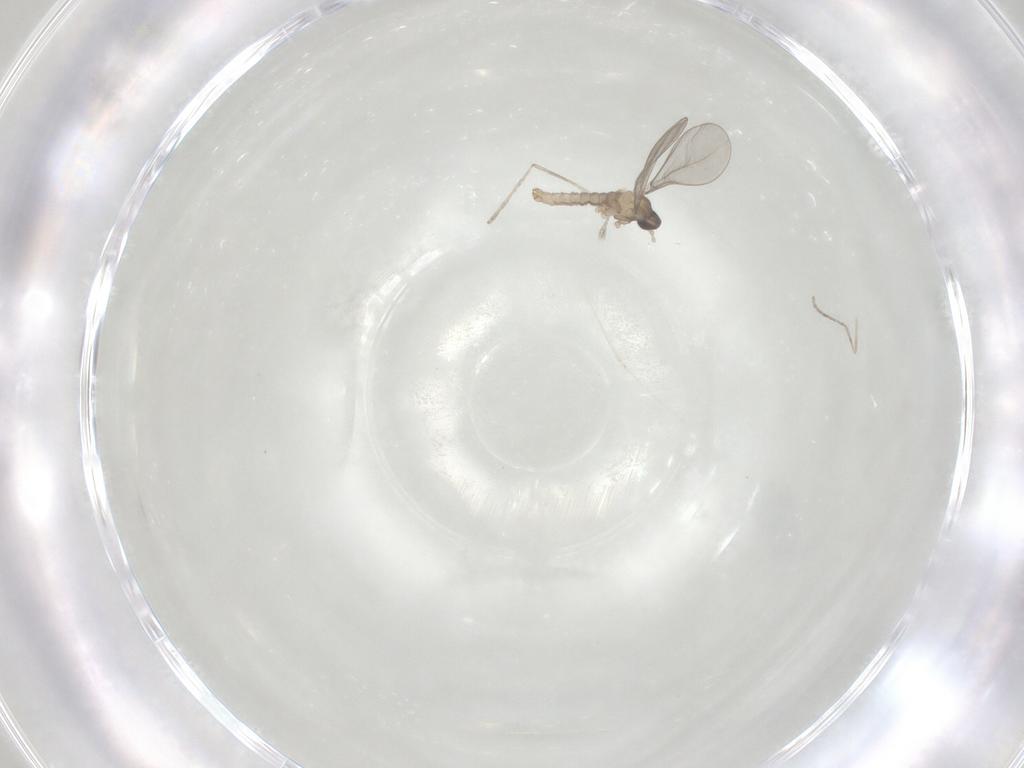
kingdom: Animalia
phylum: Arthropoda
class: Insecta
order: Diptera
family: Cecidomyiidae
